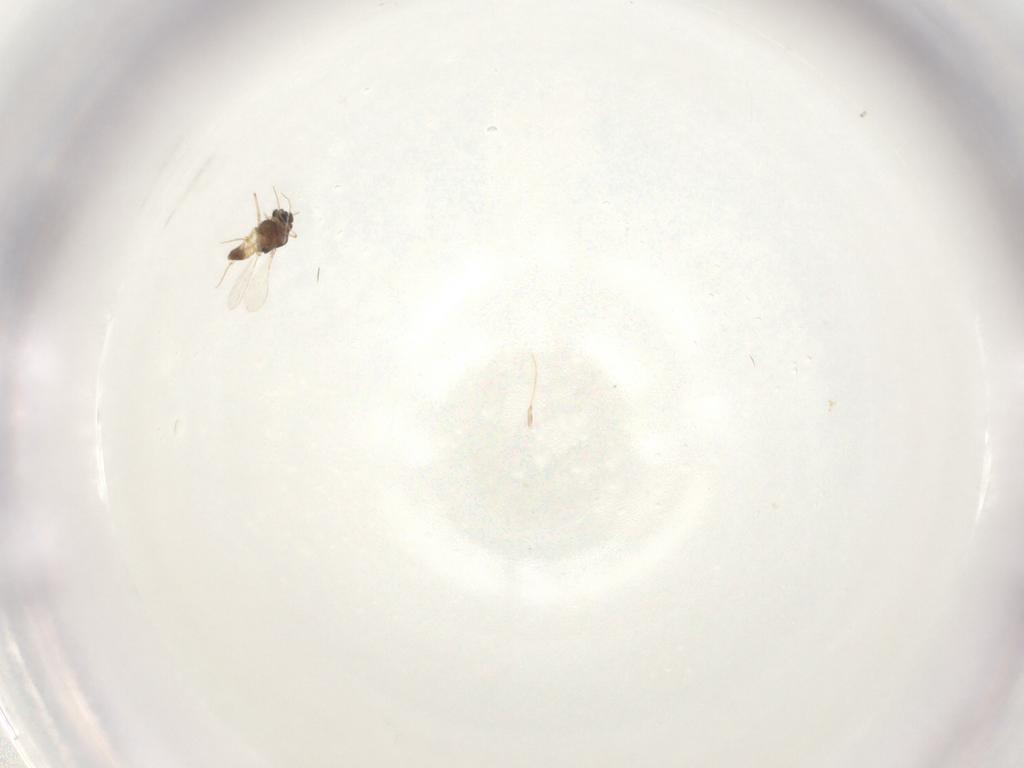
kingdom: Animalia
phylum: Arthropoda
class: Insecta
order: Diptera
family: Chironomidae
